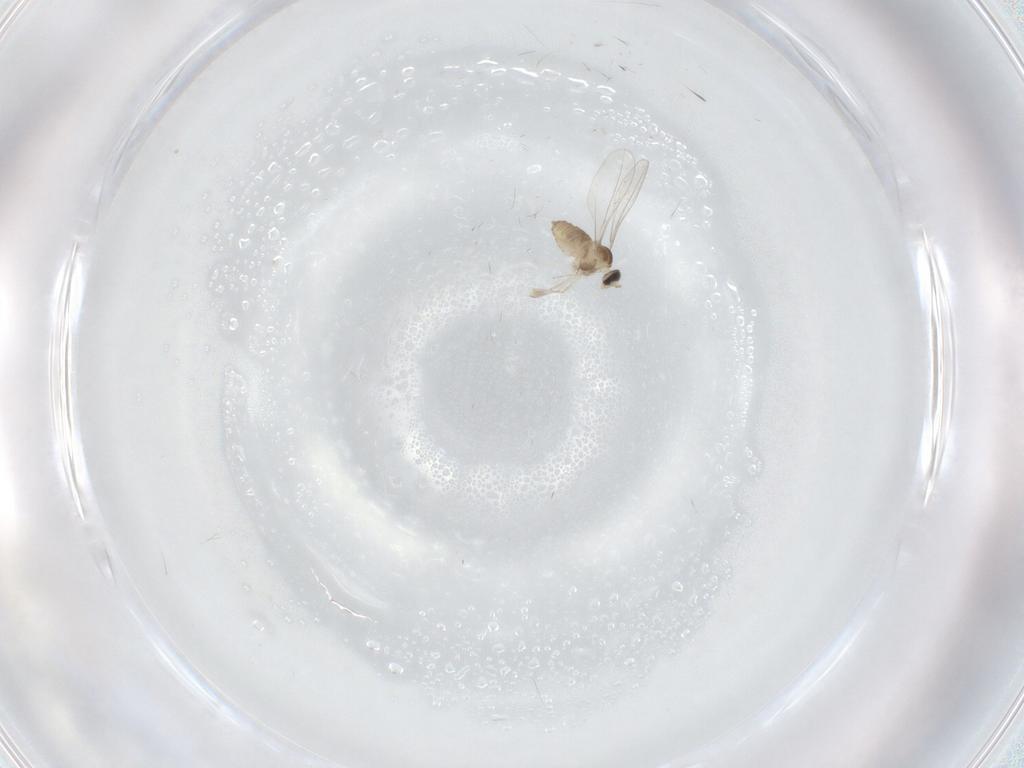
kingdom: Animalia
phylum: Arthropoda
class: Insecta
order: Diptera
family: Cecidomyiidae
